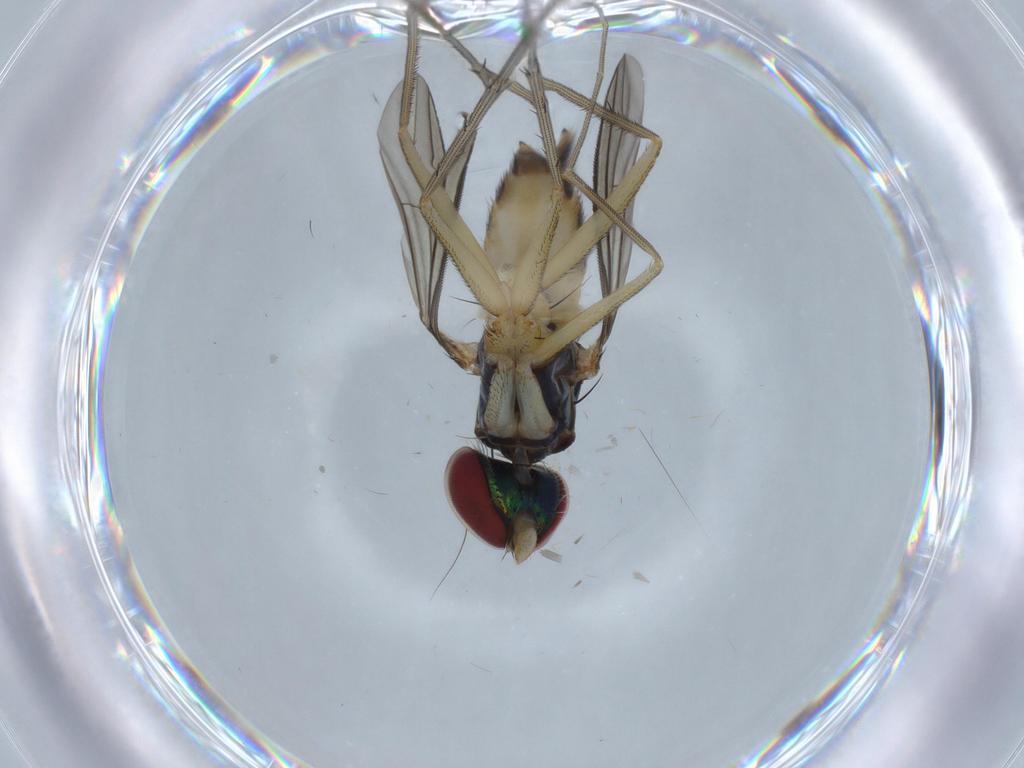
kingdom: Animalia
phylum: Arthropoda
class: Insecta
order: Diptera
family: Dolichopodidae
